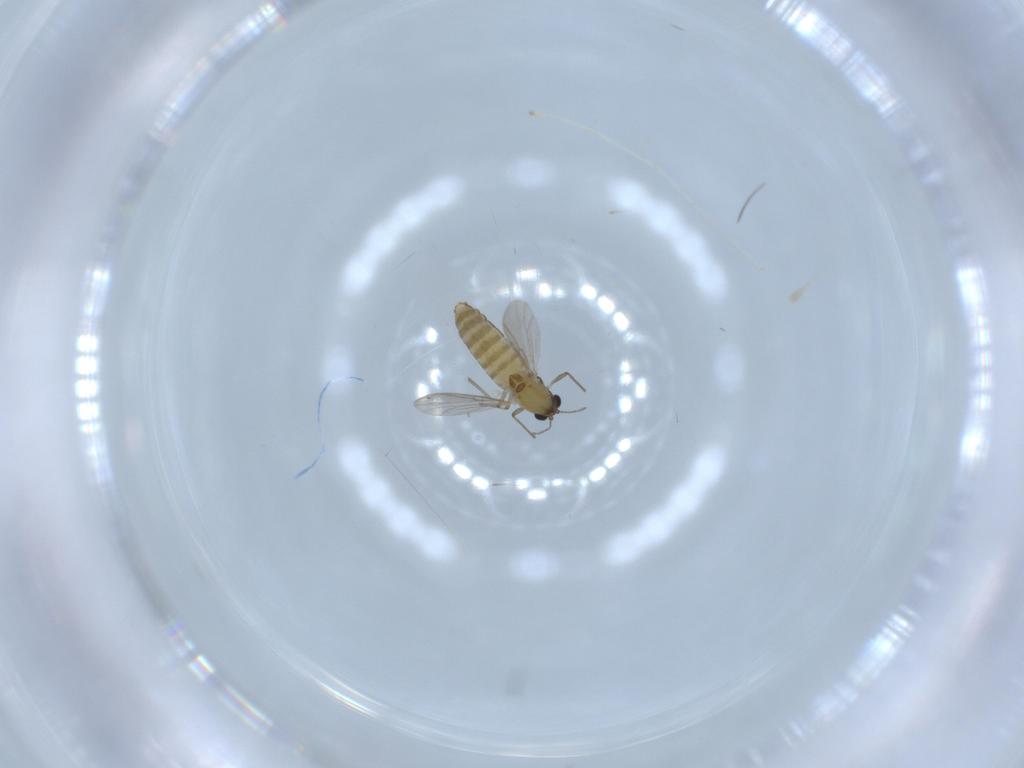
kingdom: Animalia
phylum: Arthropoda
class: Insecta
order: Diptera
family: Chironomidae
